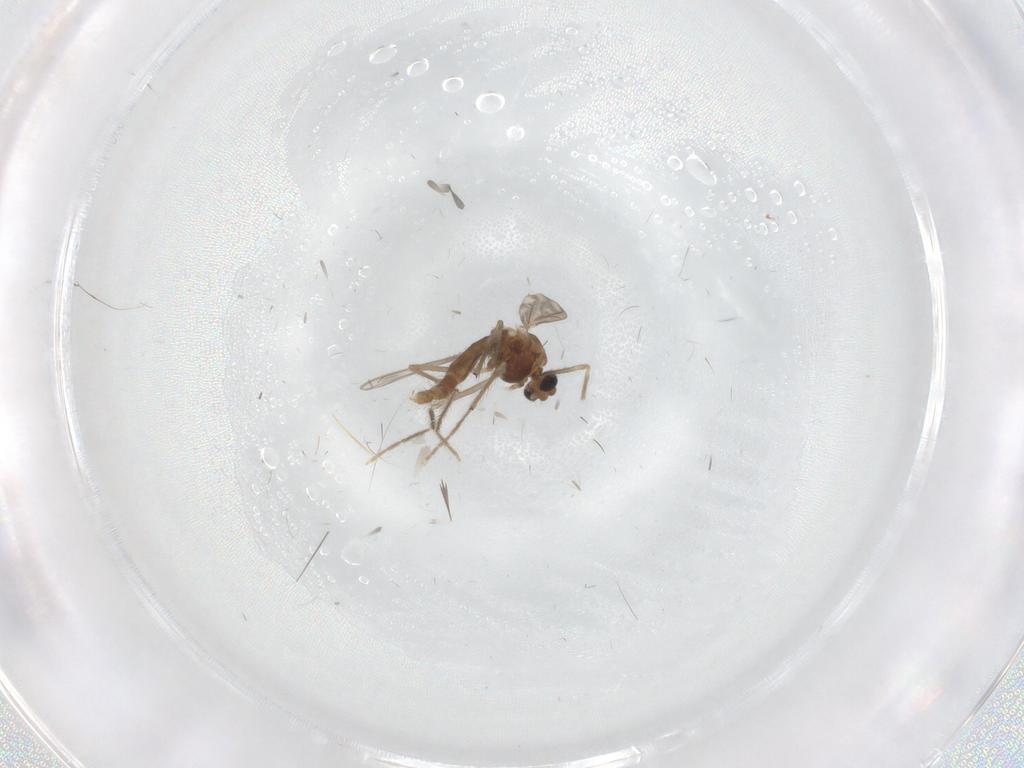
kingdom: Animalia
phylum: Arthropoda
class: Insecta
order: Diptera
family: Chironomidae
